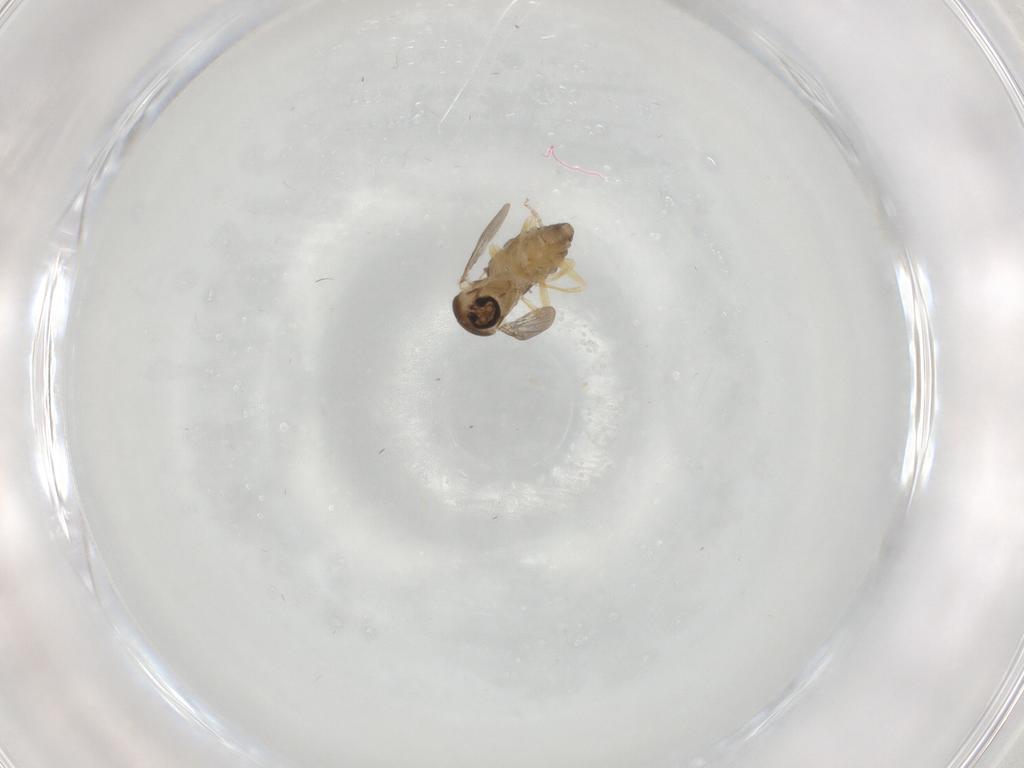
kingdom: Animalia
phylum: Arthropoda
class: Insecta
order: Diptera
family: Ceratopogonidae
